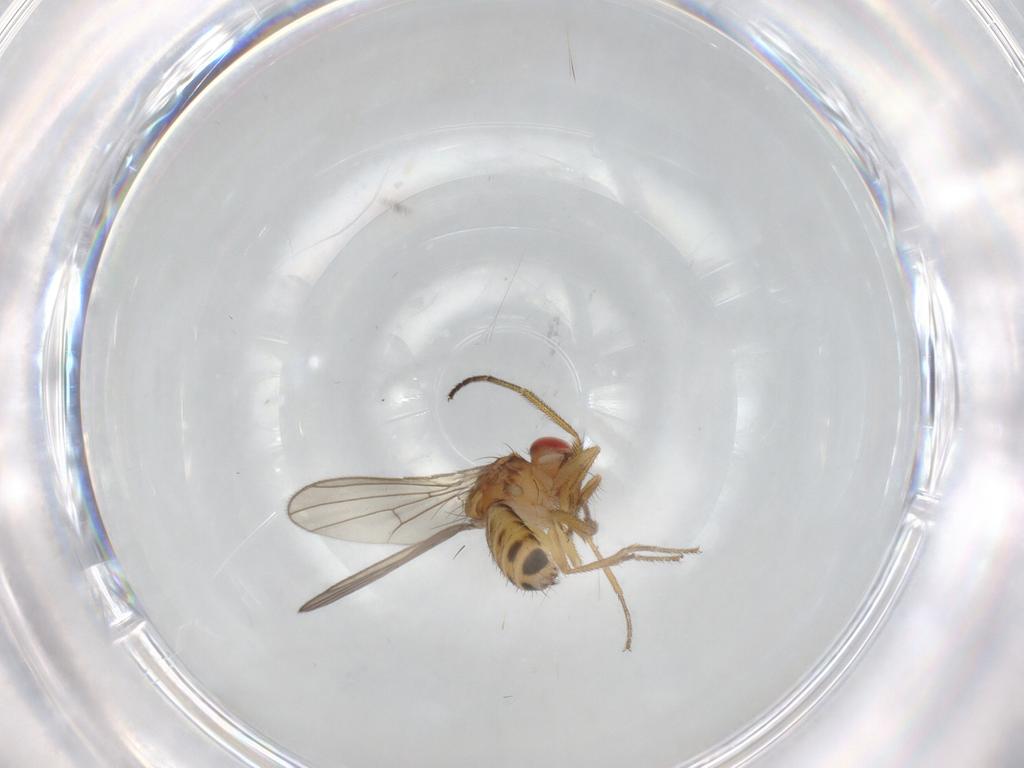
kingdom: Animalia
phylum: Arthropoda
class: Insecta
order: Diptera
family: Drosophilidae
